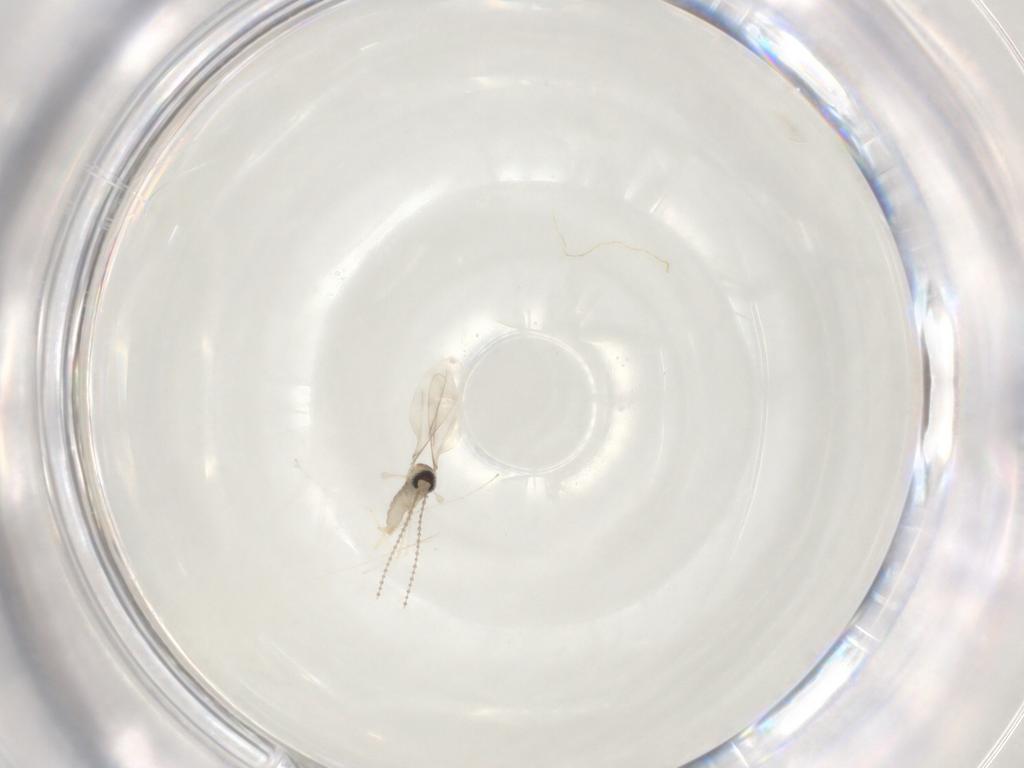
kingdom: Animalia
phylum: Arthropoda
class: Insecta
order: Diptera
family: Cecidomyiidae
